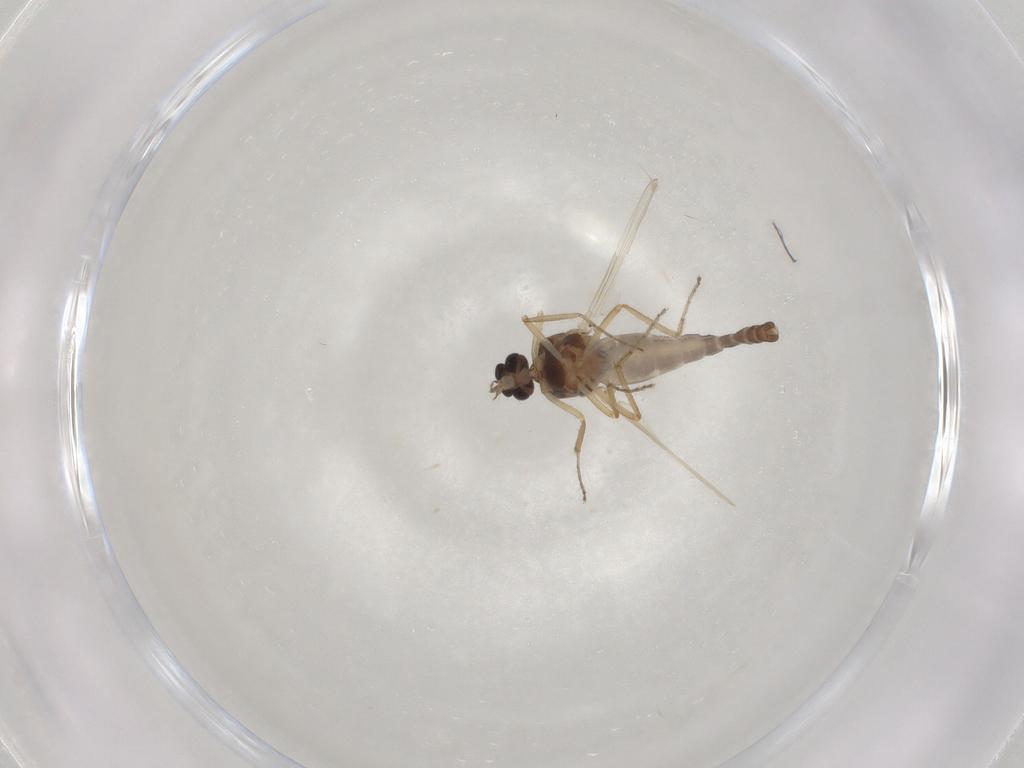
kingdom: Animalia
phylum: Arthropoda
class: Insecta
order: Diptera
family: Ceratopogonidae
